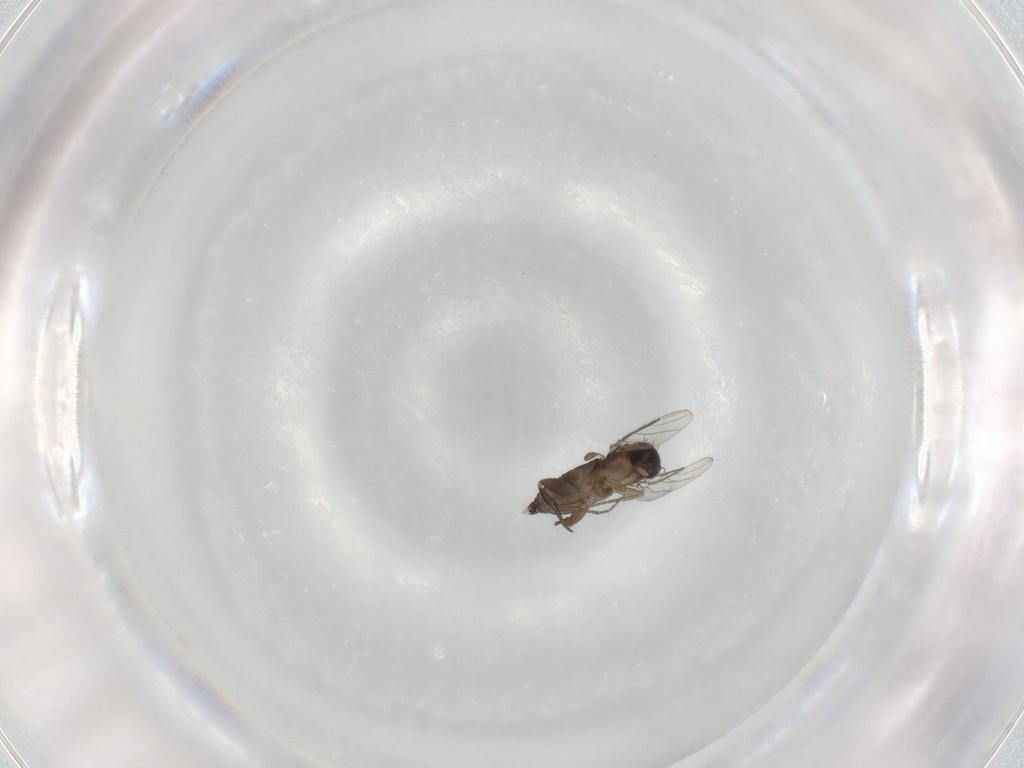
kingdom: Animalia
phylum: Arthropoda
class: Insecta
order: Diptera
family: Phoridae
